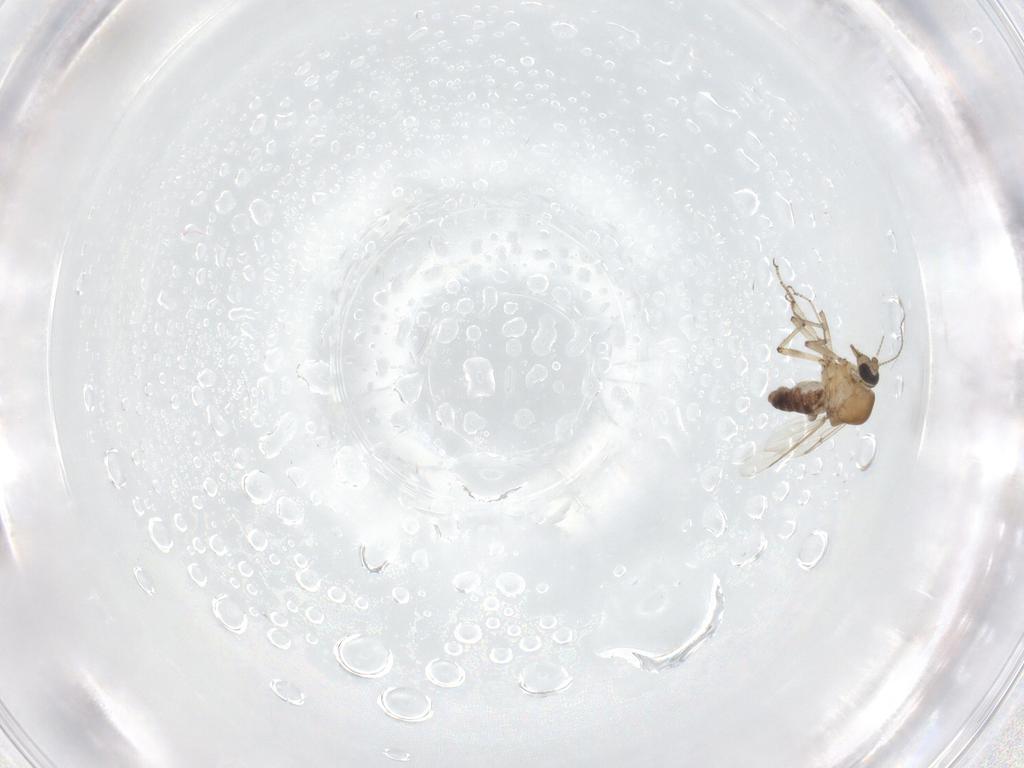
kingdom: Animalia
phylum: Arthropoda
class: Insecta
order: Diptera
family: Ceratopogonidae
